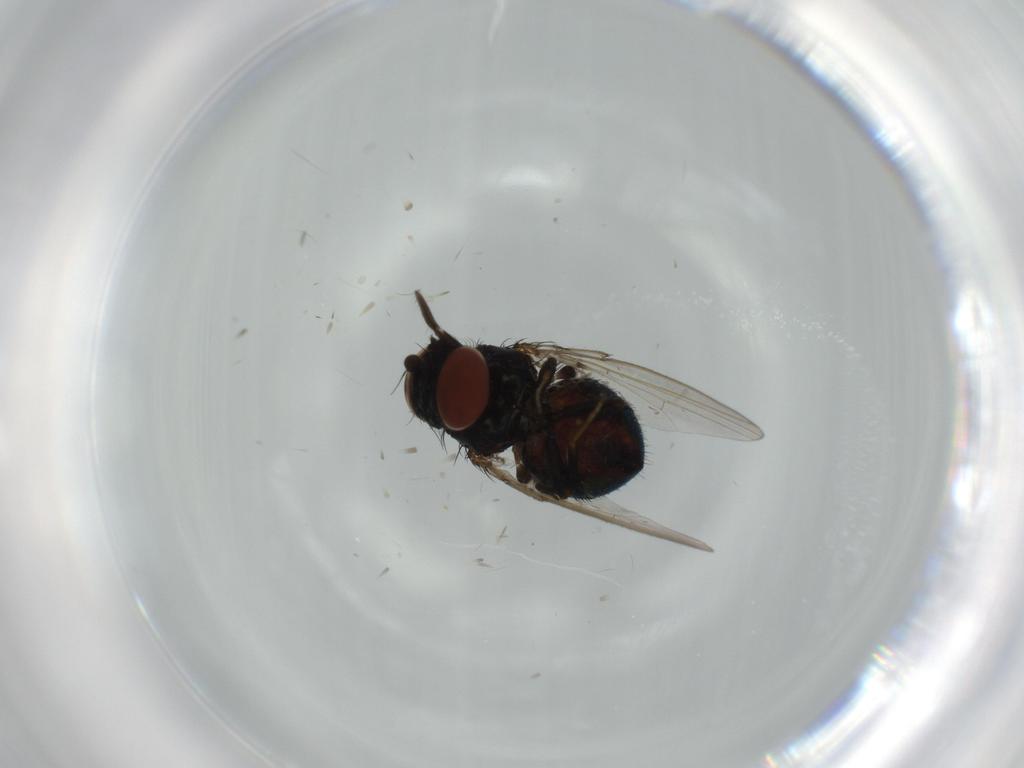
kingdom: Animalia
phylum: Arthropoda
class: Insecta
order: Diptera
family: Milichiidae
